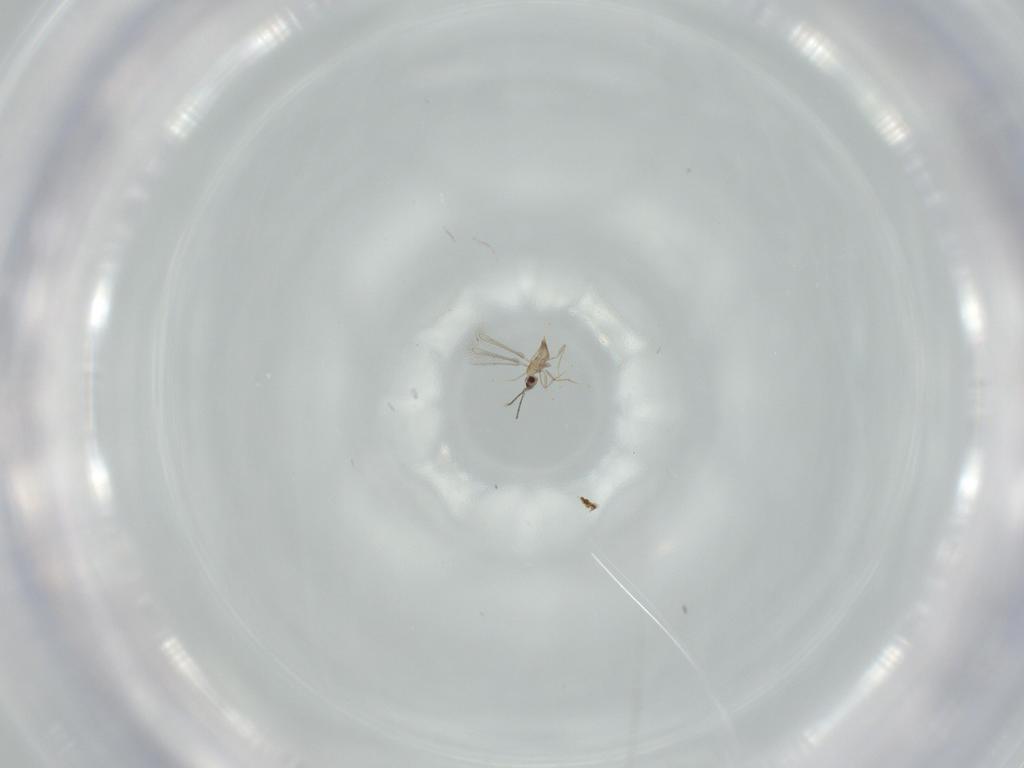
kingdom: Animalia
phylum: Arthropoda
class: Insecta
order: Hymenoptera
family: Mymaridae
